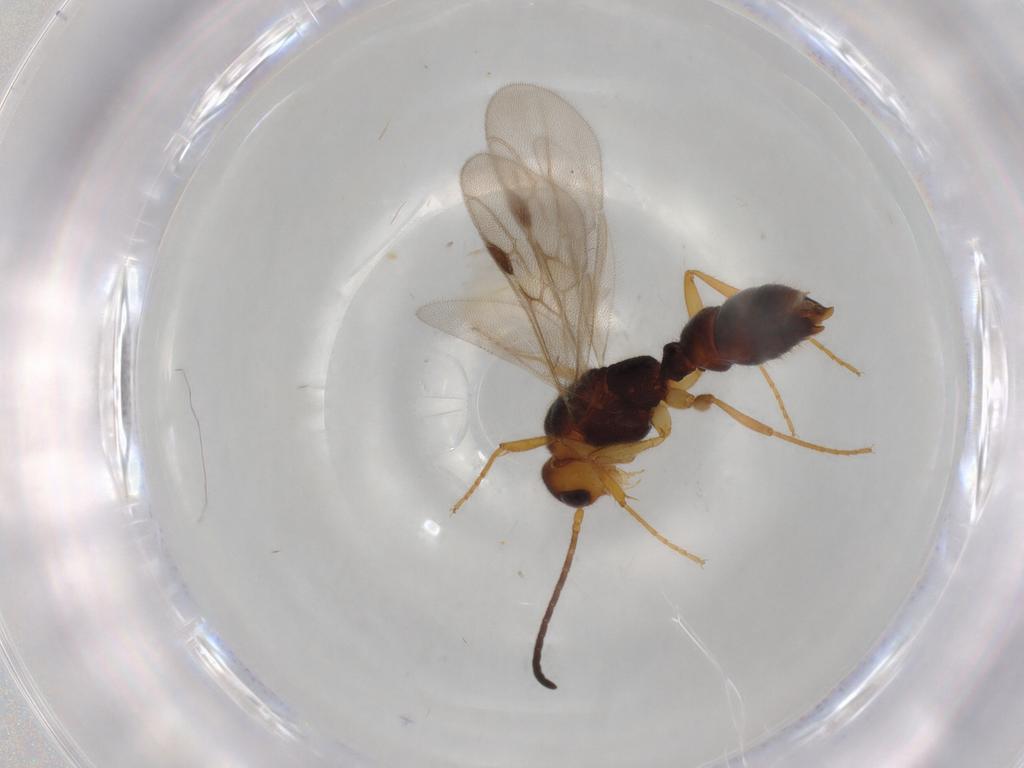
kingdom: Animalia
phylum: Arthropoda
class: Insecta
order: Hymenoptera
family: Formicidae
